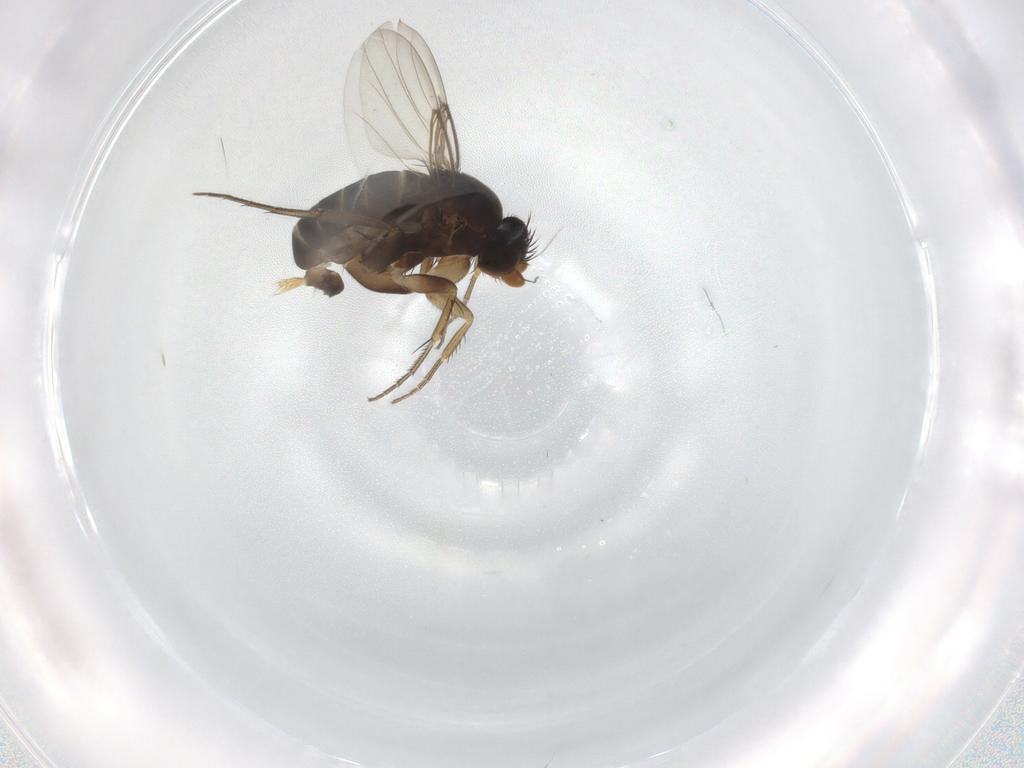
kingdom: Animalia
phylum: Arthropoda
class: Insecta
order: Diptera
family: Phoridae
